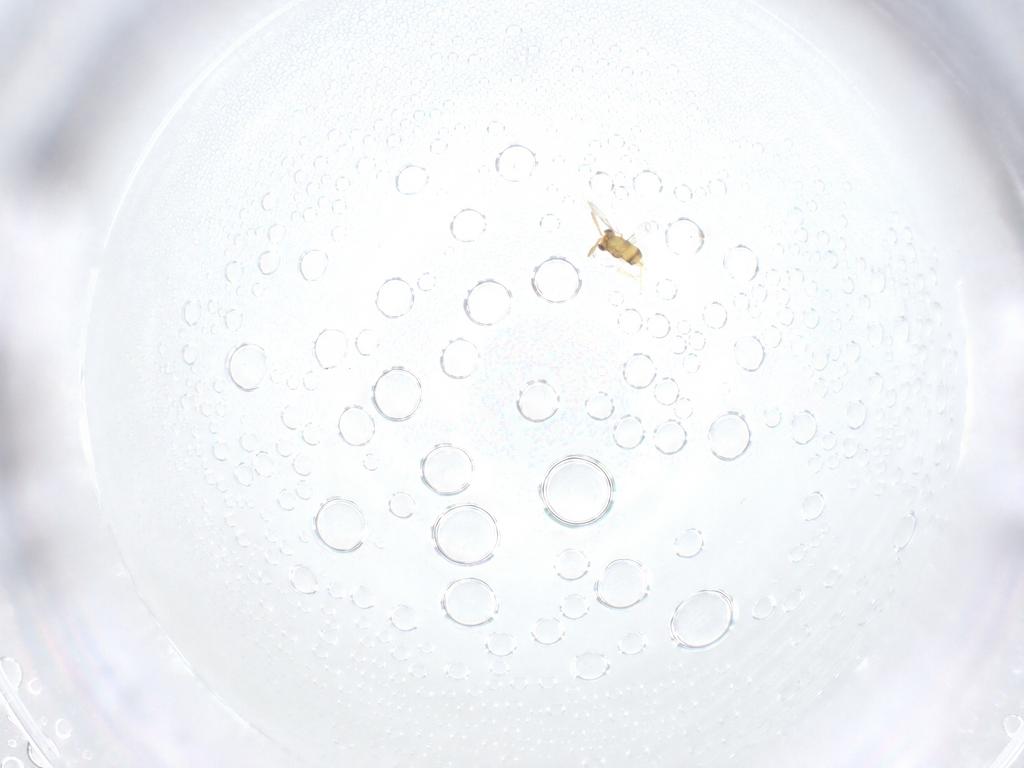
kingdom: Animalia
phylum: Arthropoda
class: Insecta
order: Hymenoptera
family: Aphelinidae
